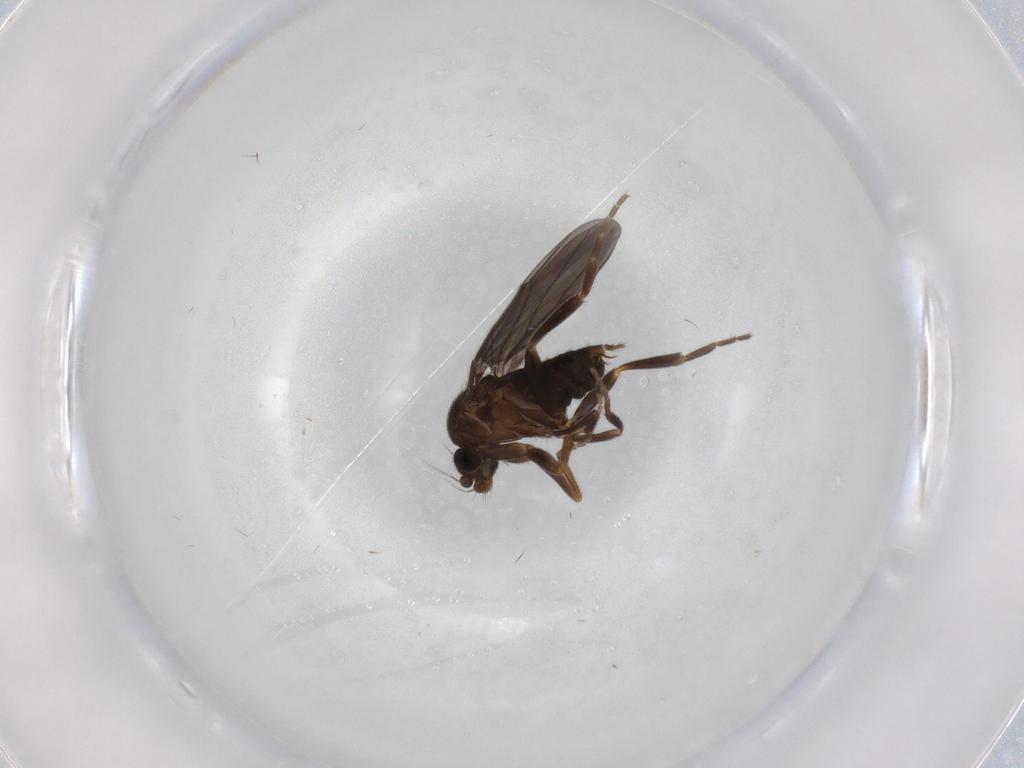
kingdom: Animalia
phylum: Arthropoda
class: Insecta
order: Diptera
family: Phoridae
